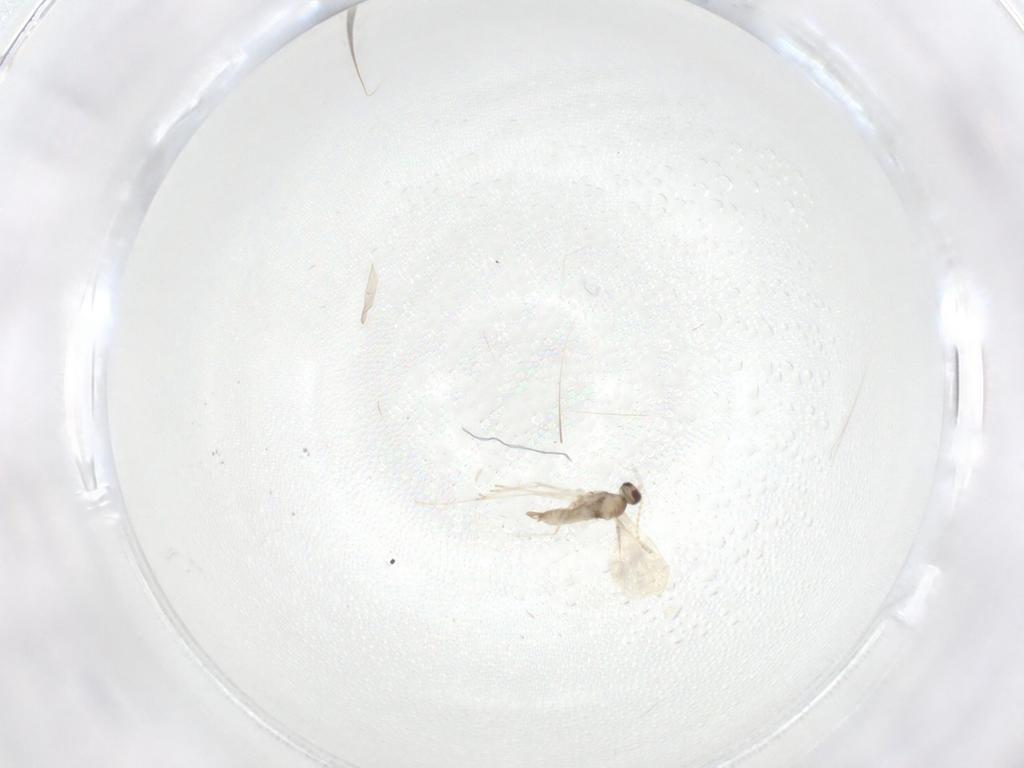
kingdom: Animalia
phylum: Arthropoda
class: Insecta
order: Diptera
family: Cecidomyiidae
